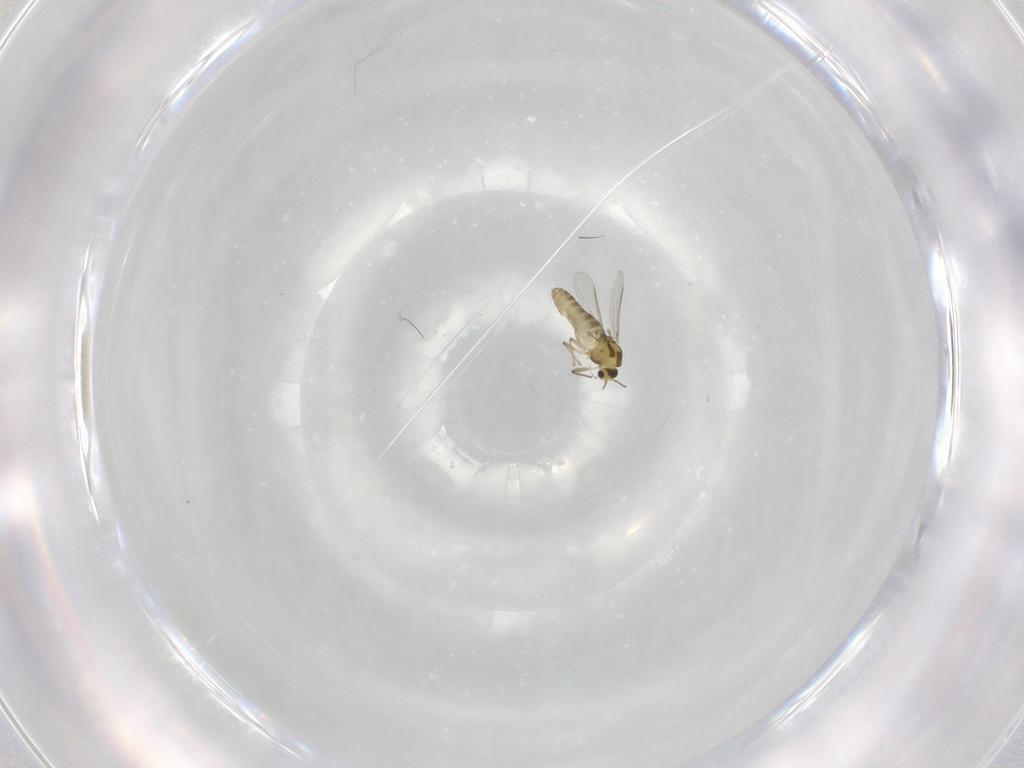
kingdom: Animalia
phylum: Arthropoda
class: Insecta
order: Diptera
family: Chironomidae
